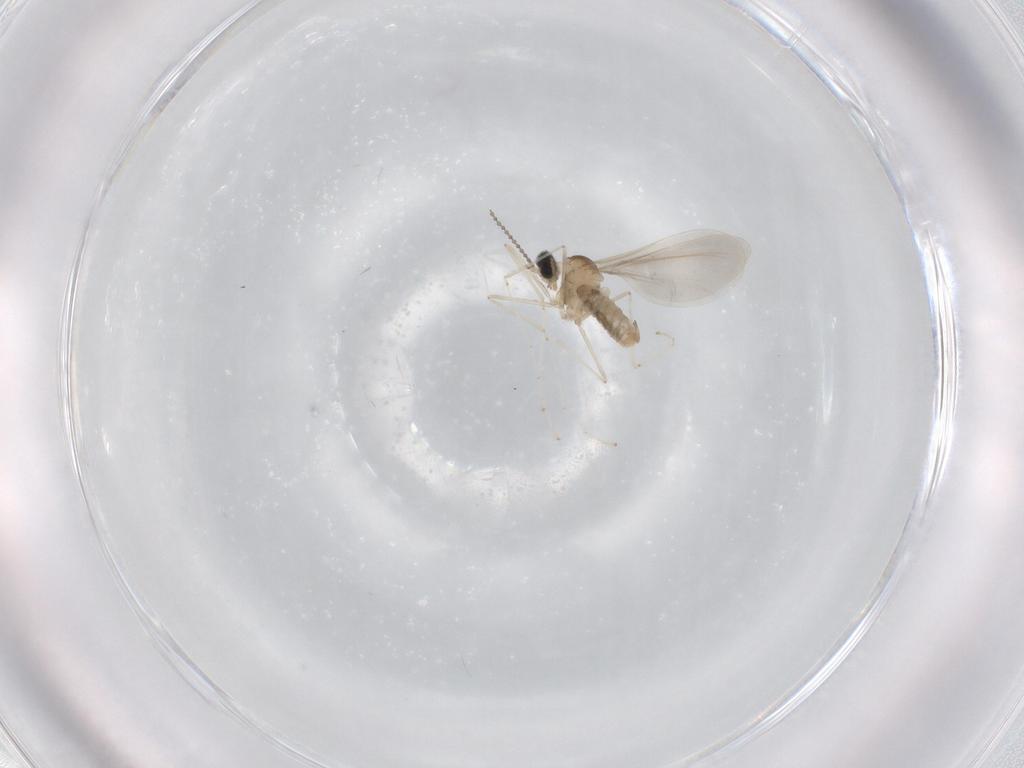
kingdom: Animalia
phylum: Arthropoda
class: Insecta
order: Diptera
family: Cecidomyiidae
